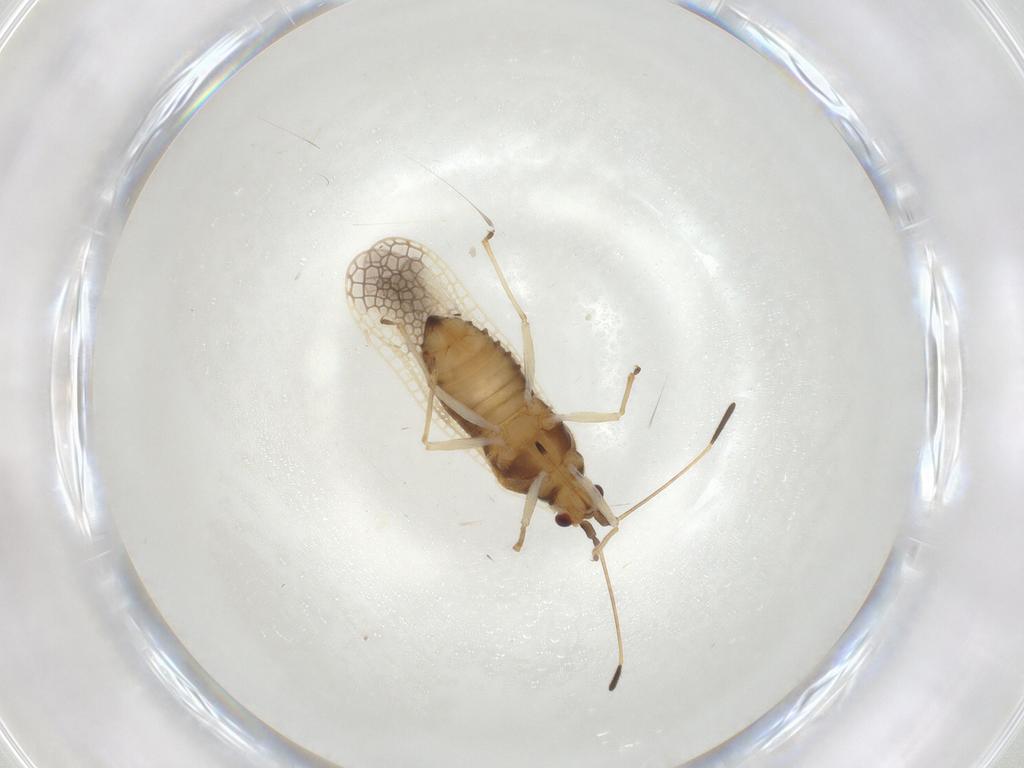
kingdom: Animalia
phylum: Arthropoda
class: Insecta
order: Hemiptera
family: Tingidae
